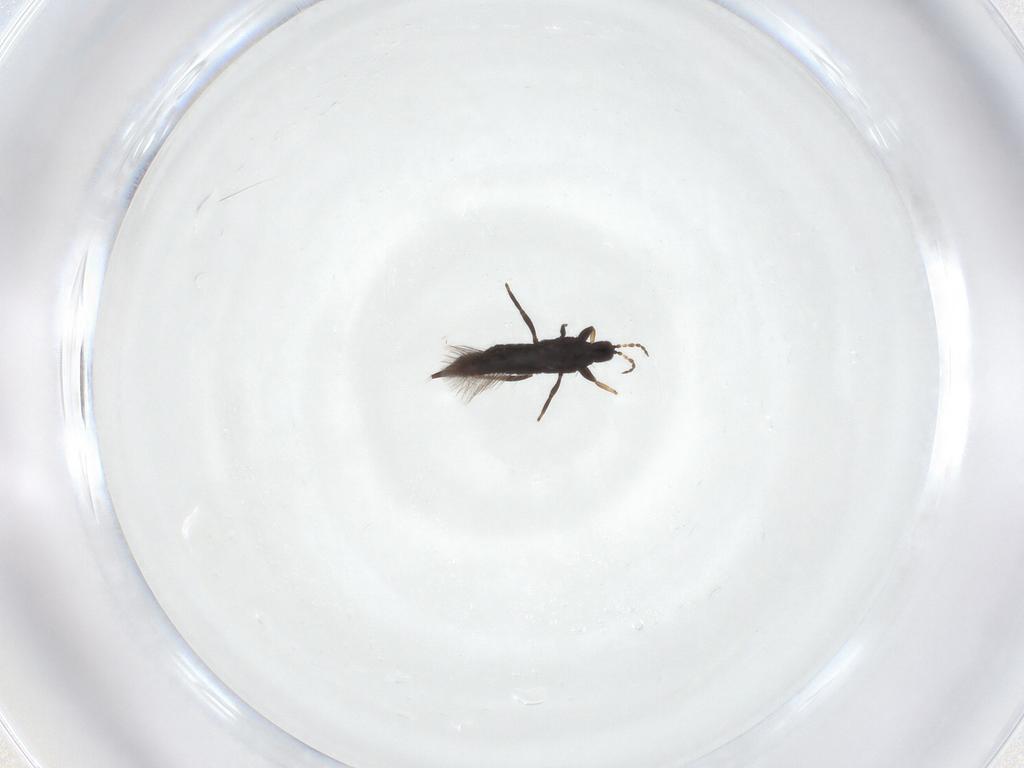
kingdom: Animalia
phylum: Arthropoda
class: Insecta
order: Thysanoptera
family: Phlaeothripidae
